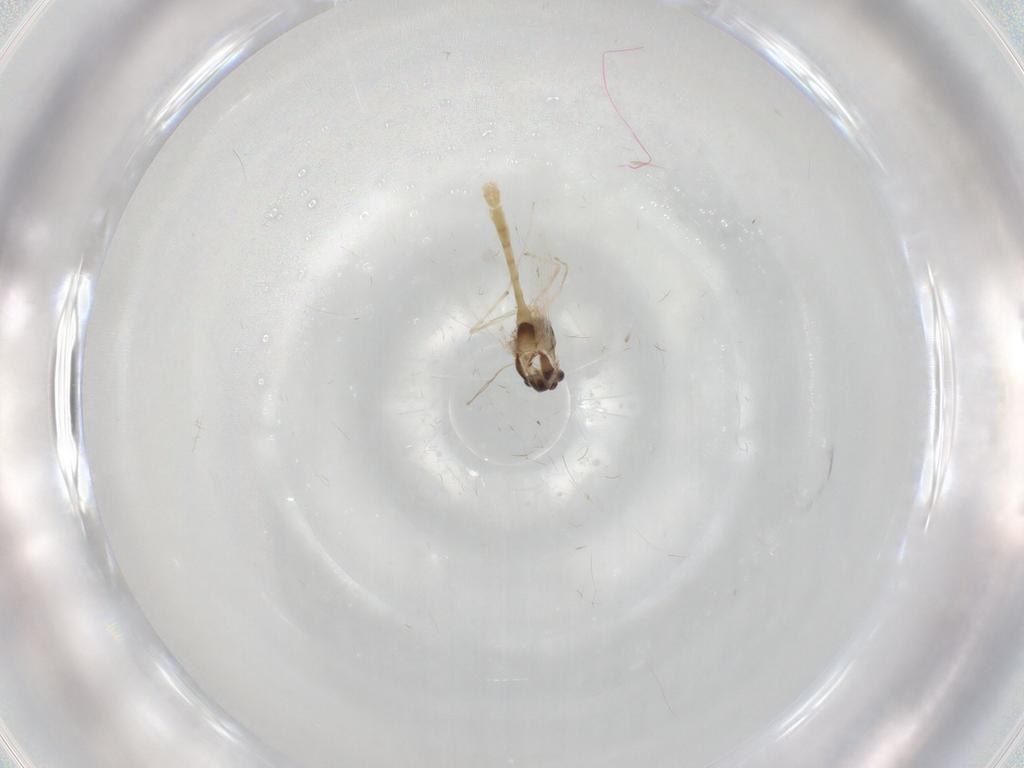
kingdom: Animalia
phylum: Arthropoda
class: Insecta
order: Diptera
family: Chironomidae
